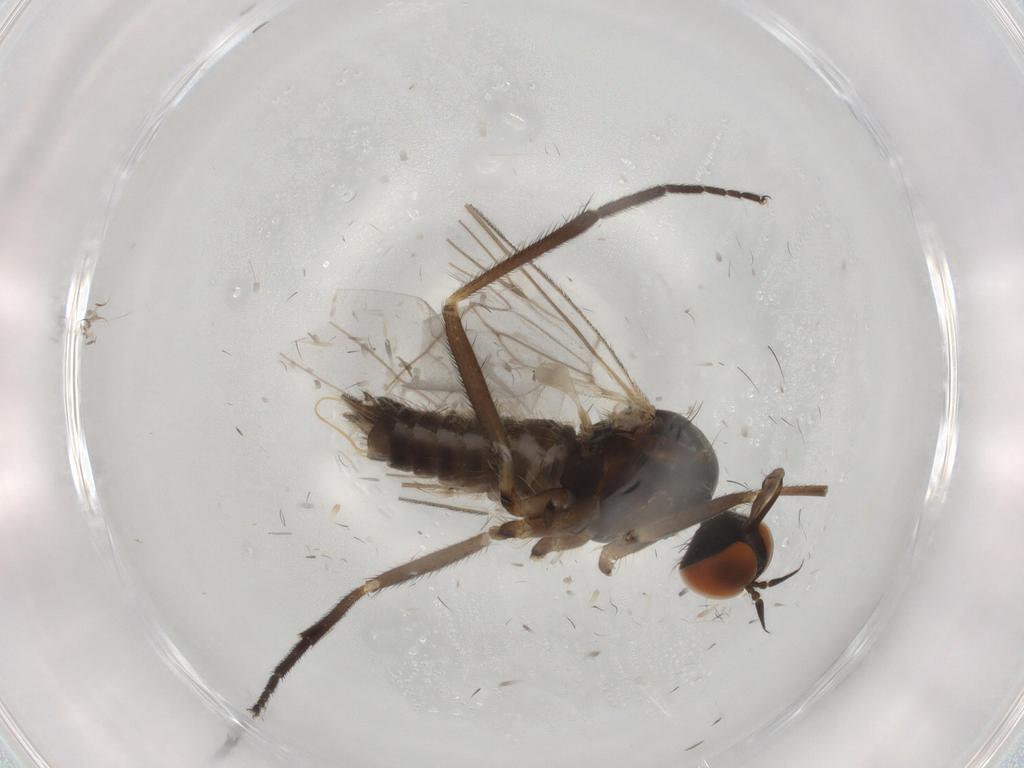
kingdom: Animalia
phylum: Arthropoda
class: Insecta
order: Diptera
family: Empididae
